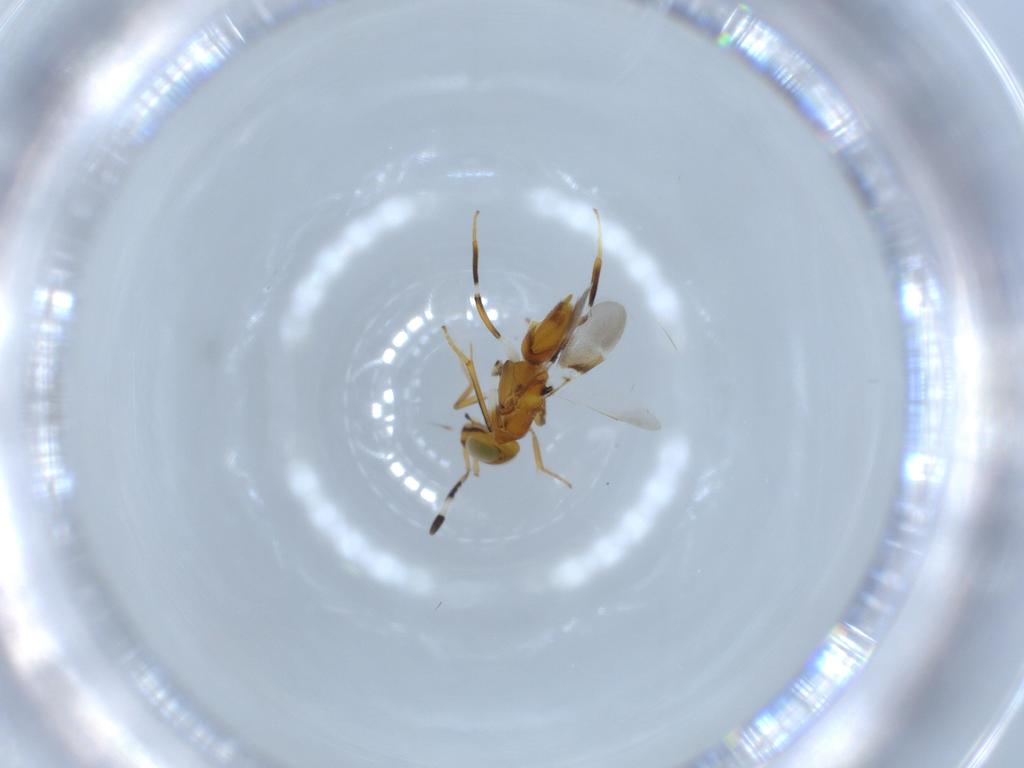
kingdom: Animalia
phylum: Arthropoda
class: Insecta
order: Hymenoptera
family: Encyrtidae
